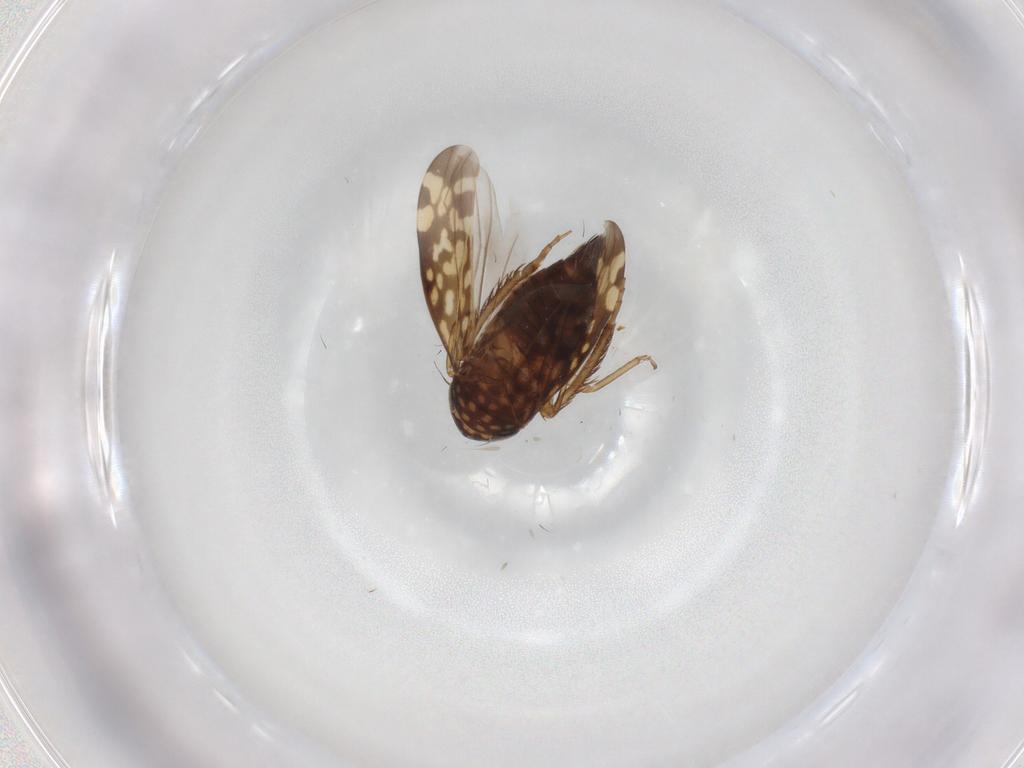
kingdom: Animalia
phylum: Arthropoda
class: Insecta
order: Hemiptera
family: Cicadellidae
